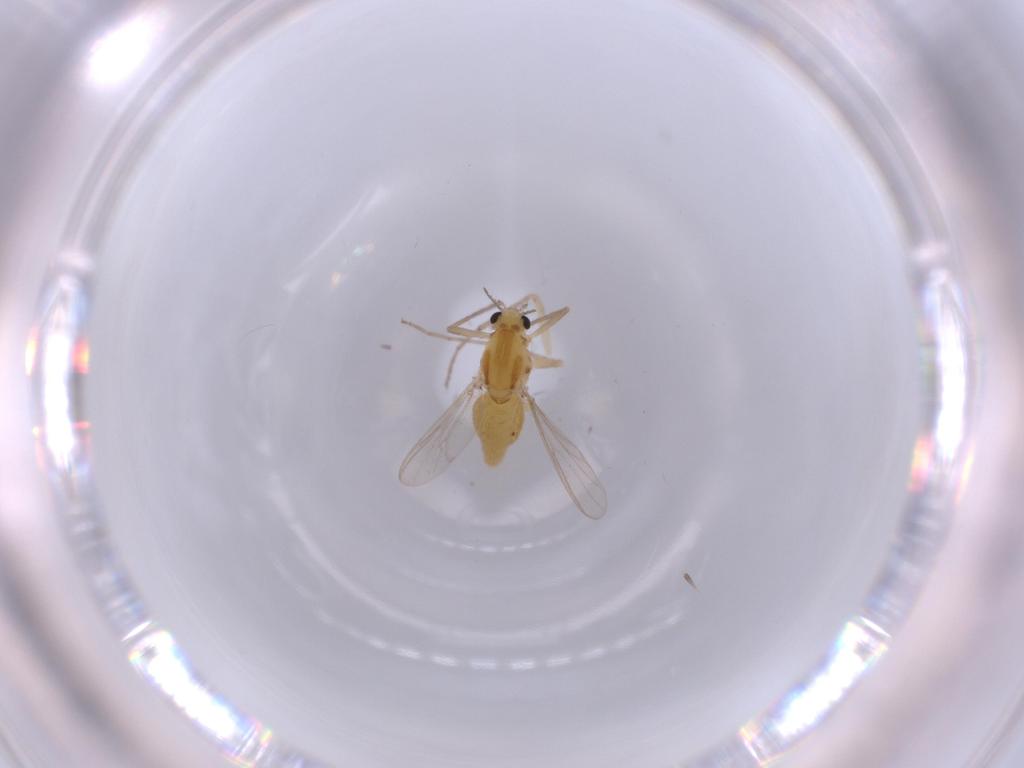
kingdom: Animalia
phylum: Arthropoda
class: Insecta
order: Diptera
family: Chironomidae
